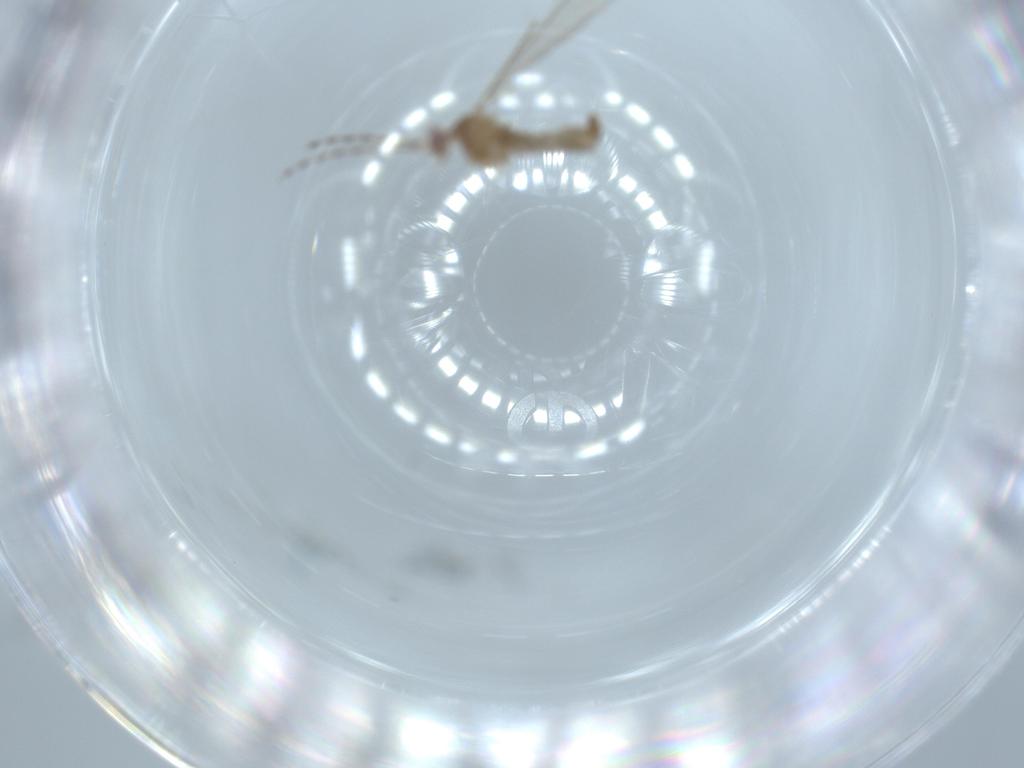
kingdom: Animalia
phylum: Arthropoda
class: Insecta
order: Diptera
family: Cecidomyiidae
